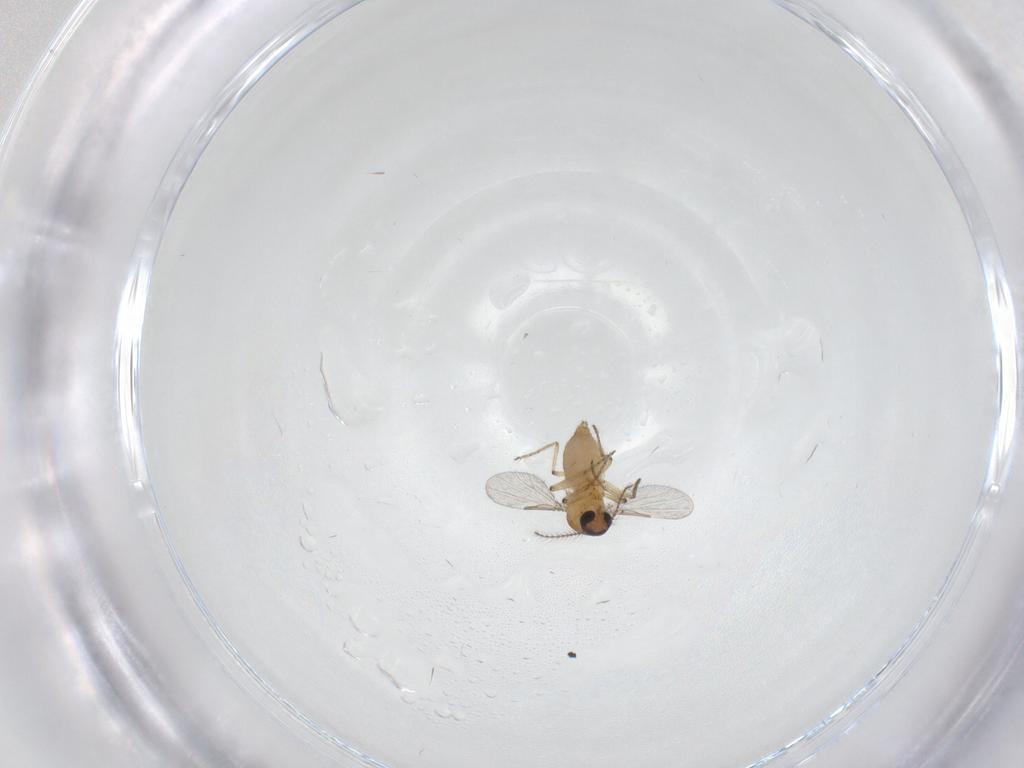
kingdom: Animalia
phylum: Arthropoda
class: Insecta
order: Diptera
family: Ceratopogonidae
